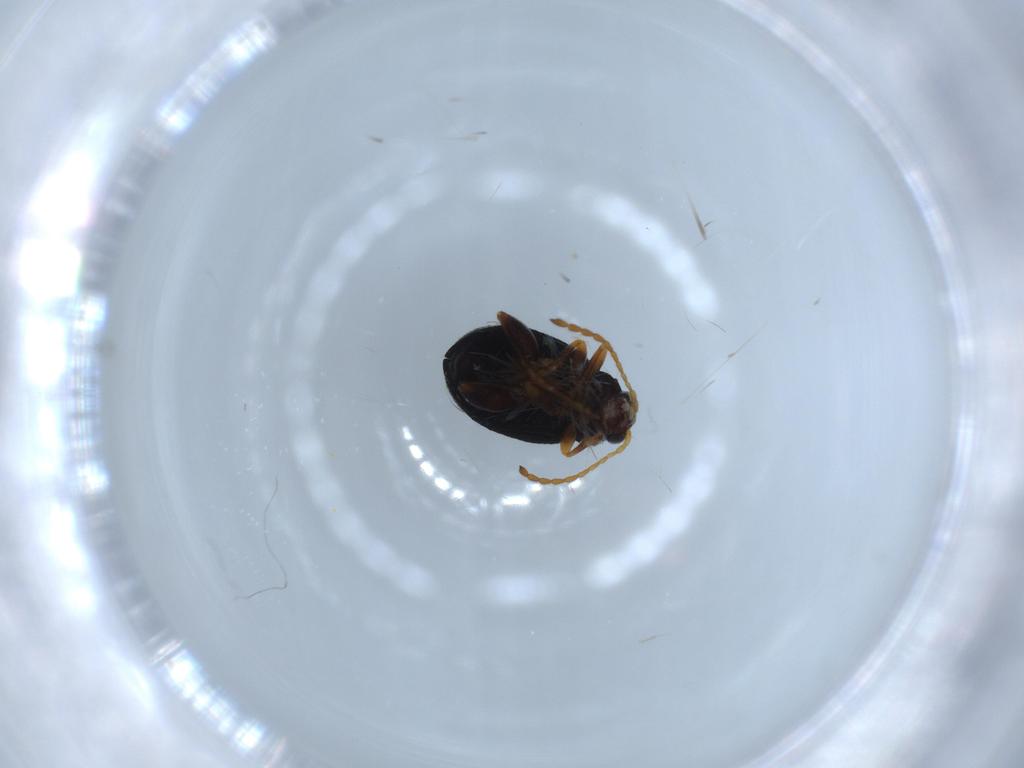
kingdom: Animalia
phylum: Arthropoda
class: Insecta
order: Coleoptera
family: Chrysomelidae
